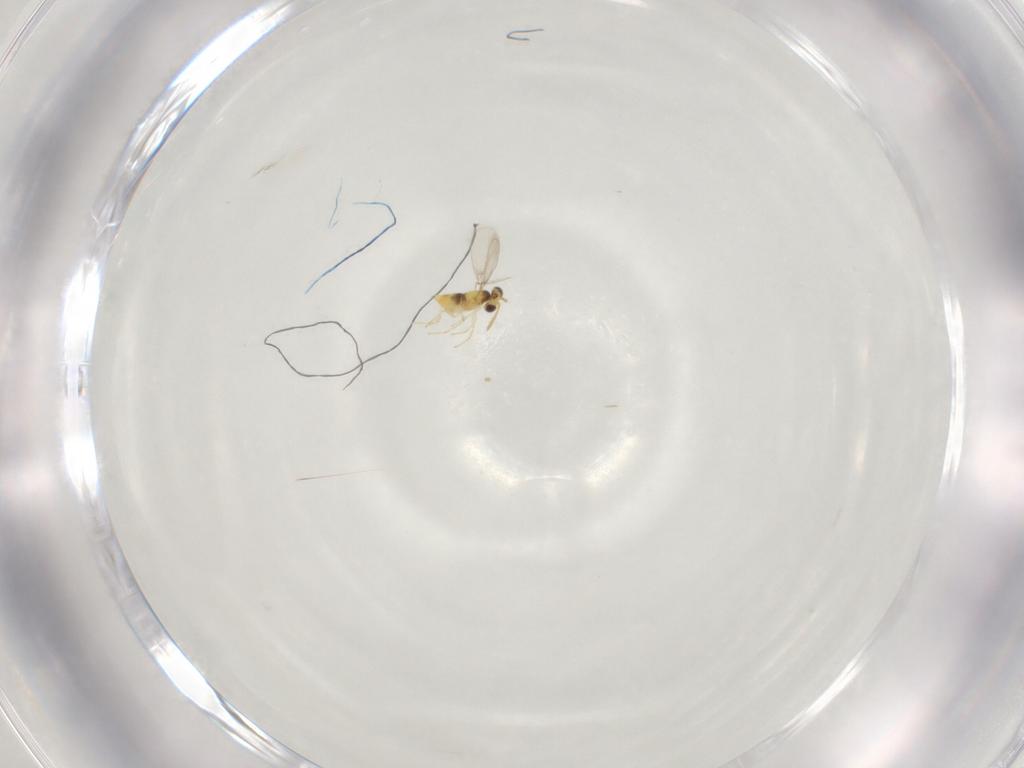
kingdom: Animalia
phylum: Arthropoda
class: Insecta
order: Hymenoptera
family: Aphelinidae
